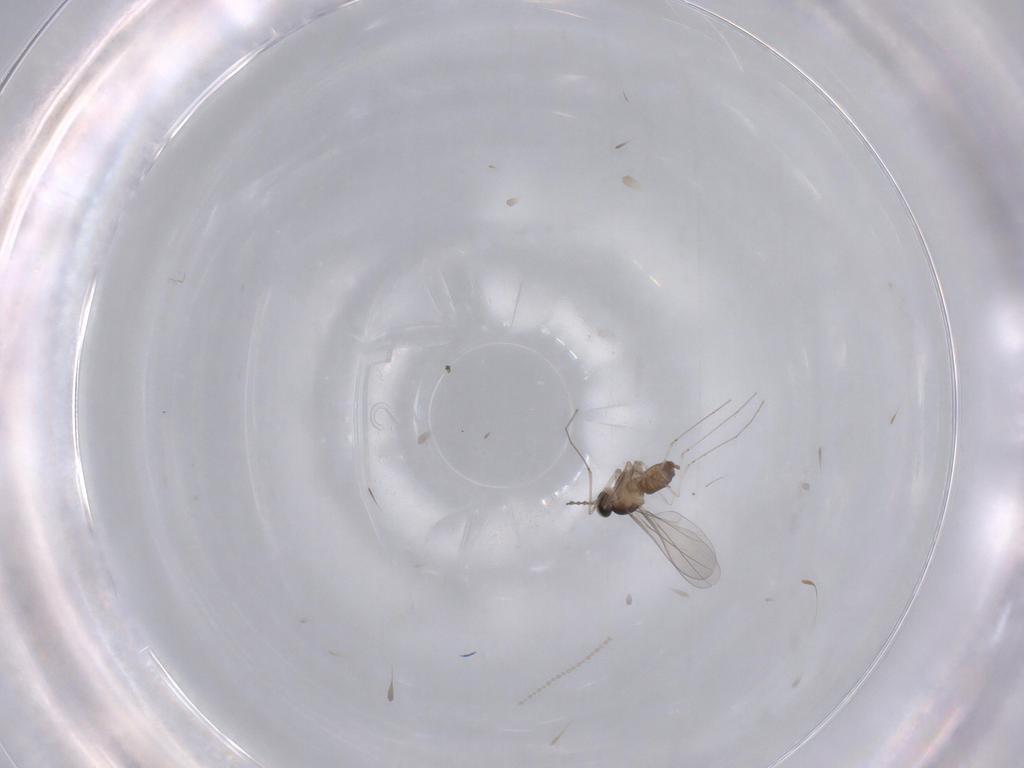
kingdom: Animalia
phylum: Arthropoda
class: Insecta
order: Diptera
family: Cecidomyiidae
